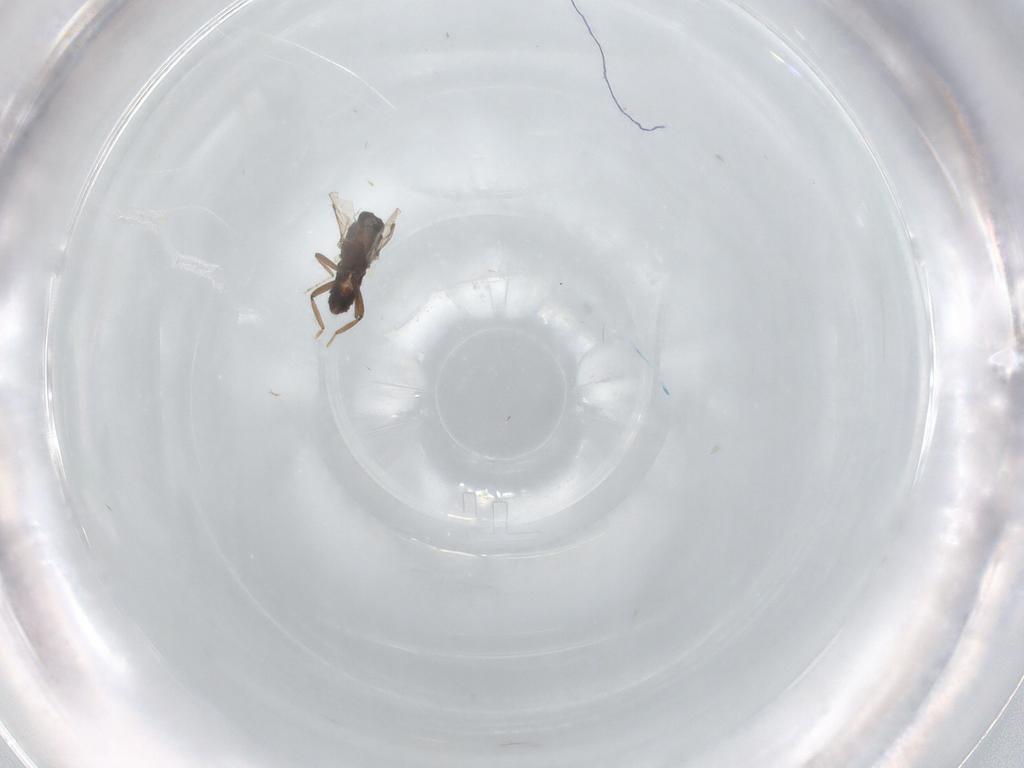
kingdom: Animalia
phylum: Arthropoda
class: Insecta
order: Diptera
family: Ceratopogonidae
